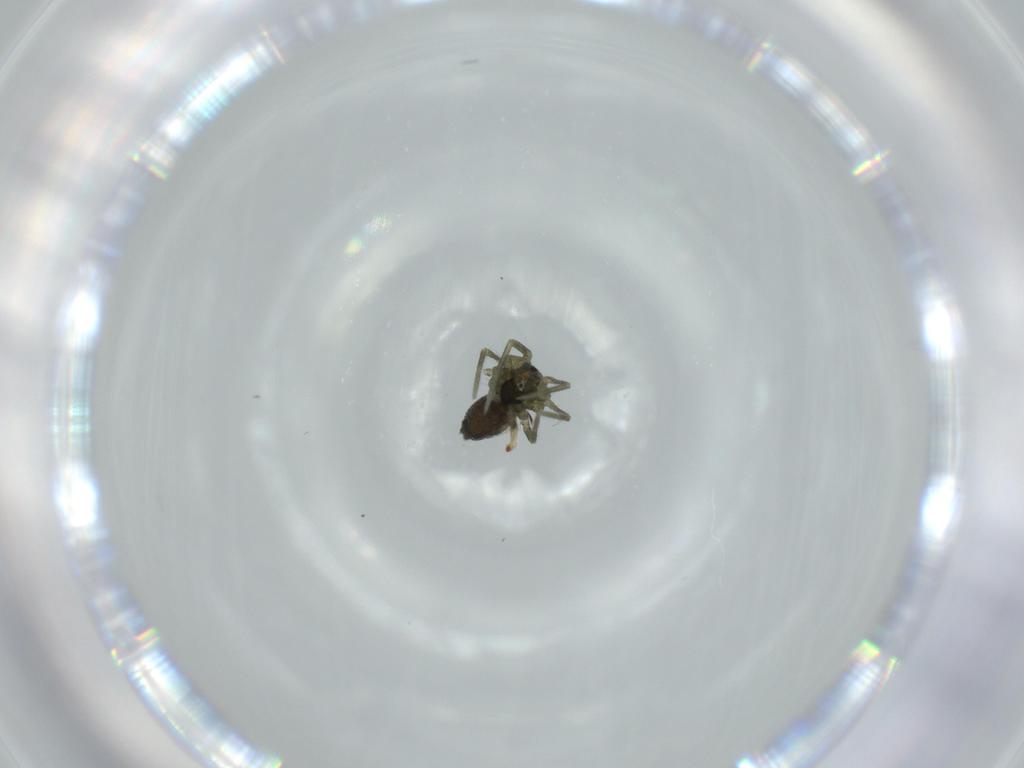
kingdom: Animalia
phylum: Arthropoda
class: Arachnida
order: Araneae
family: Linyphiidae
